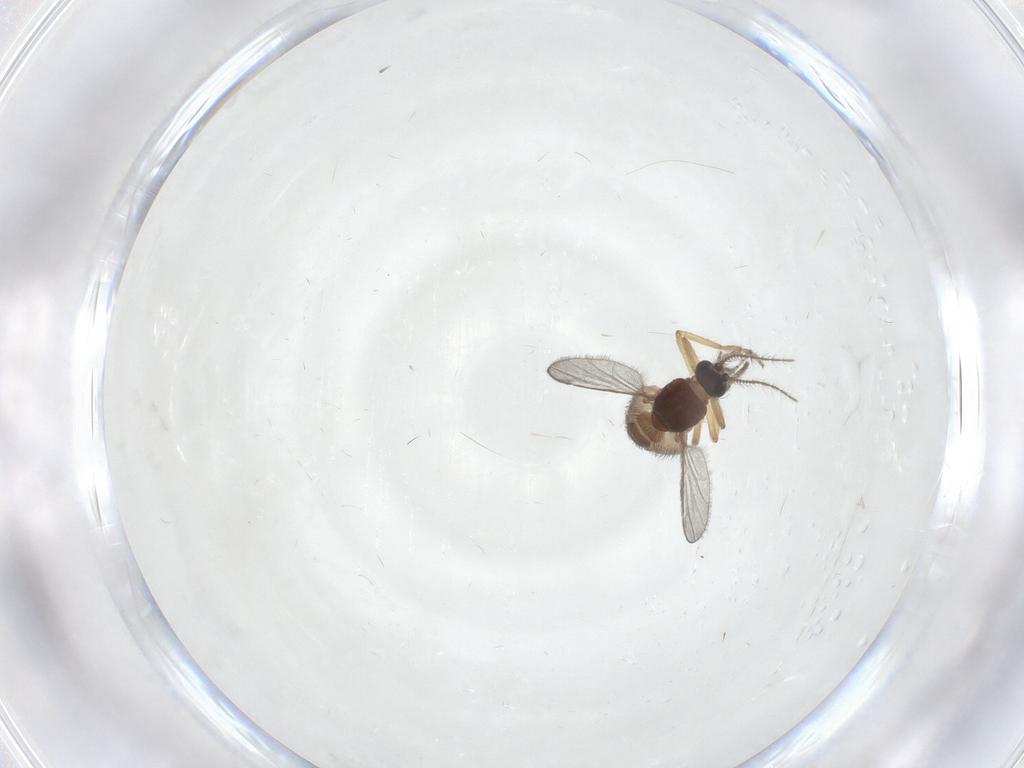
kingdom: Animalia
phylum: Arthropoda
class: Insecta
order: Diptera
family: Ceratopogonidae
